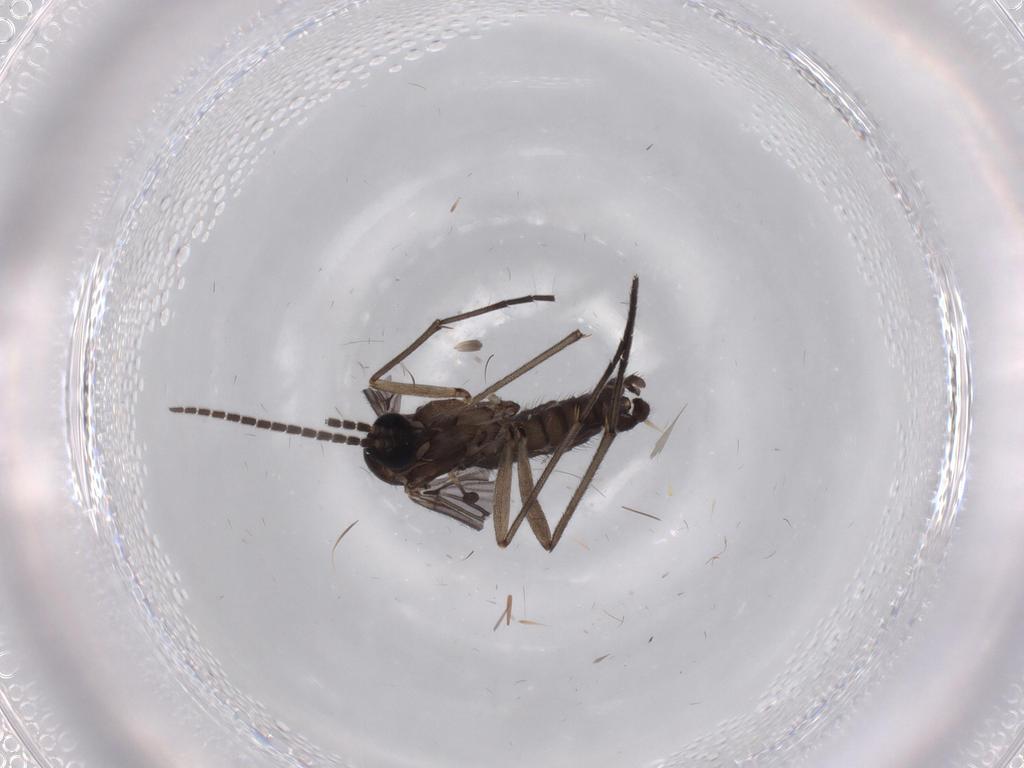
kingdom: Animalia
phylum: Arthropoda
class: Insecta
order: Diptera
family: Sciaridae
